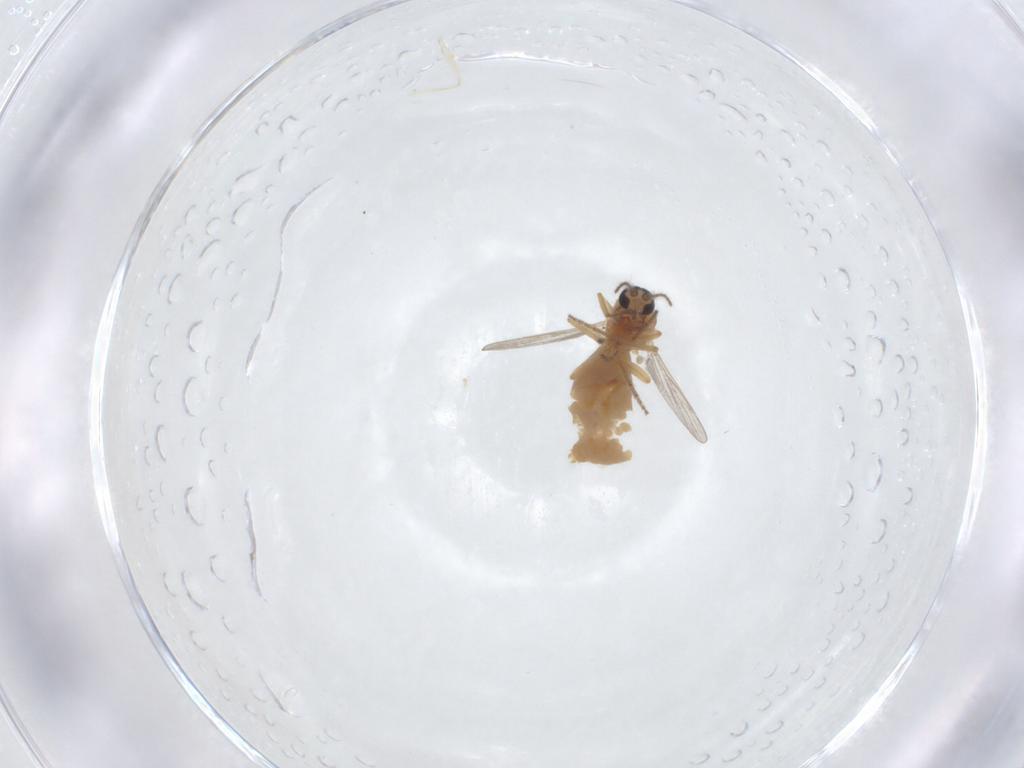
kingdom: Animalia
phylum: Arthropoda
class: Insecta
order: Diptera
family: Ceratopogonidae
